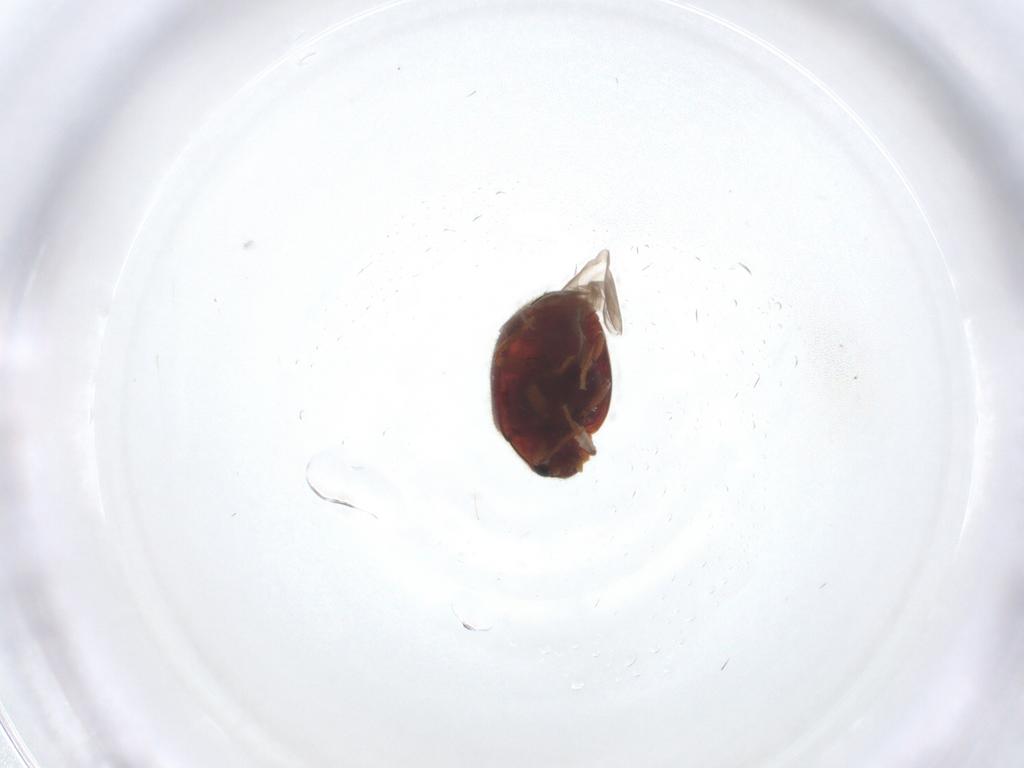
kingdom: Animalia
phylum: Arthropoda
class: Insecta
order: Coleoptera
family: Coccinellidae
